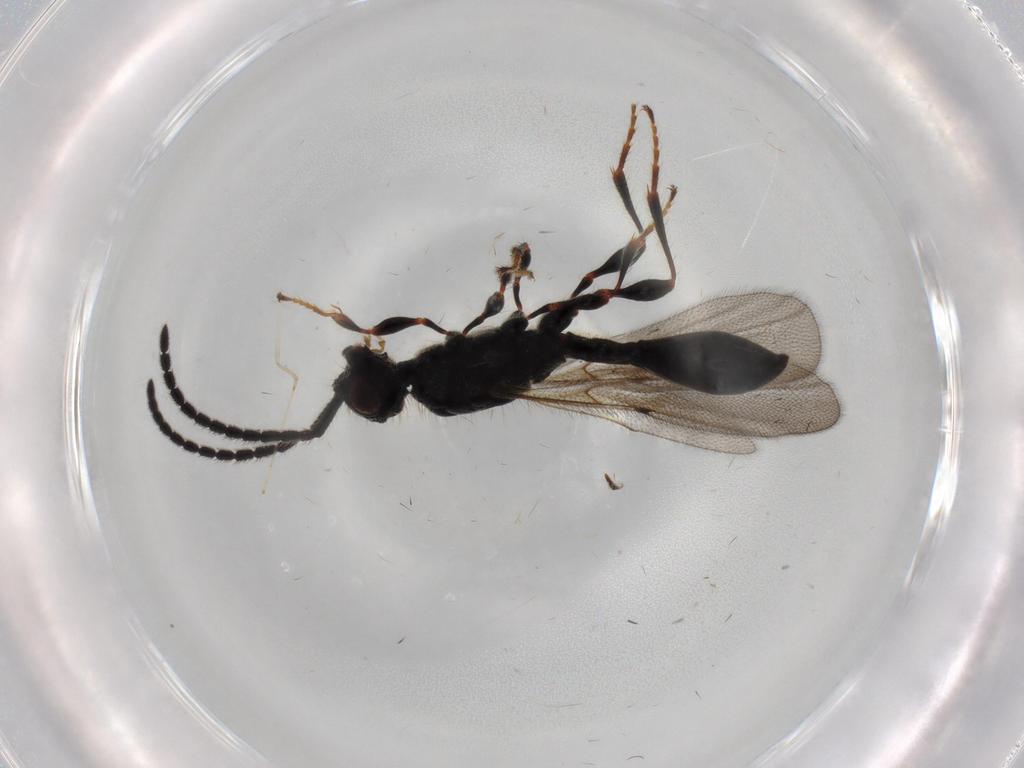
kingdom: Animalia
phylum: Arthropoda
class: Insecta
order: Hymenoptera
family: Diapriidae
